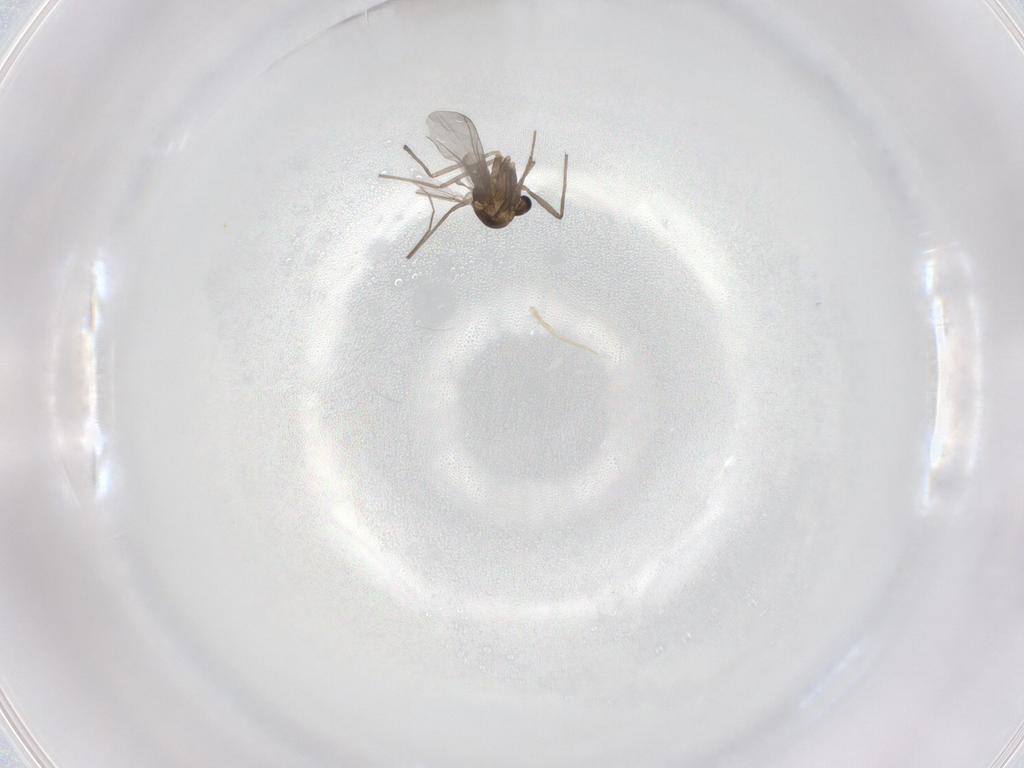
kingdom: Animalia
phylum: Arthropoda
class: Insecta
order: Diptera
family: Chironomidae
